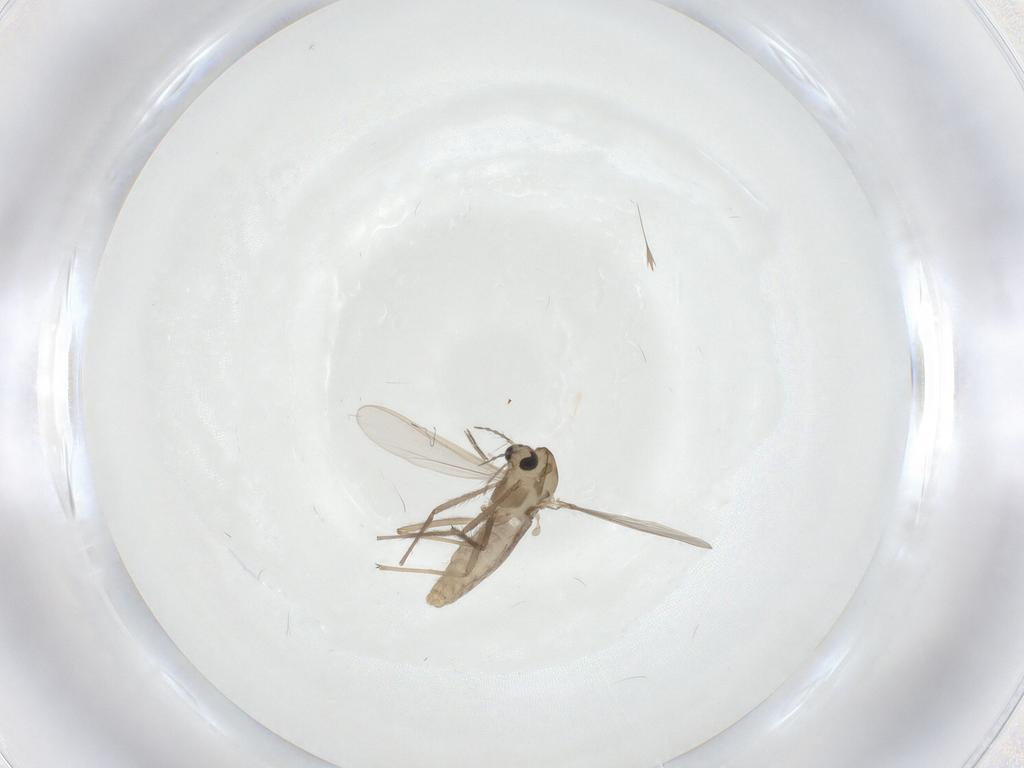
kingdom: Animalia
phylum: Arthropoda
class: Insecta
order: Diptera
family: Chironomidae
